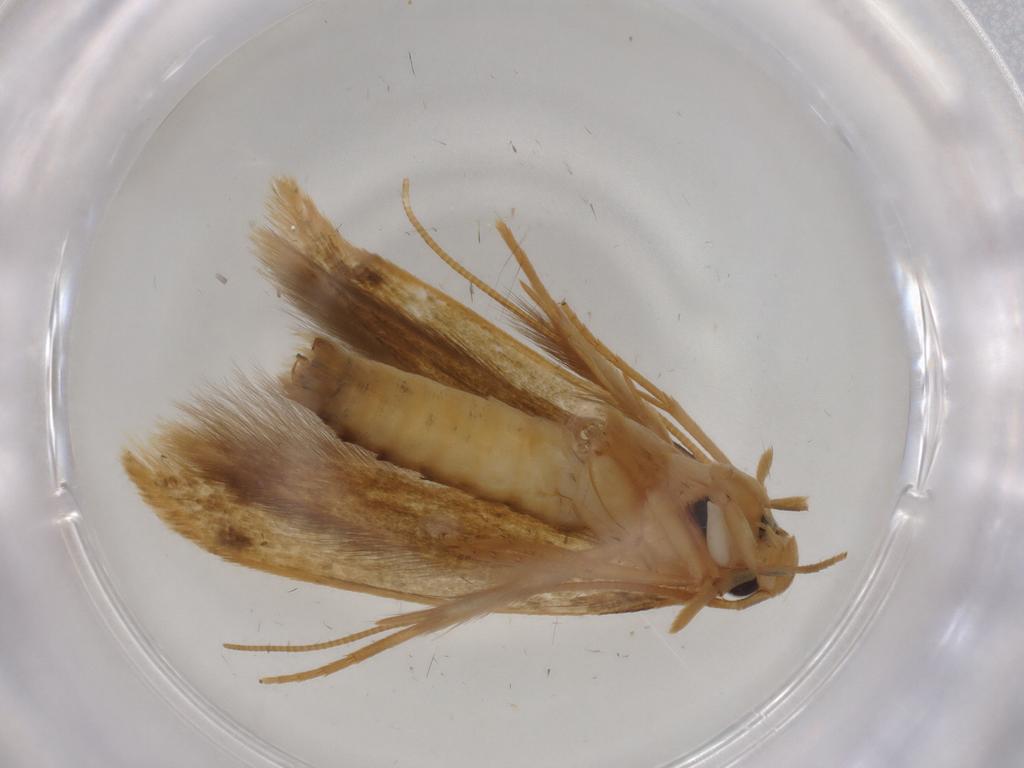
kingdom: Animalia
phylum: Arthropoda
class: Insecta
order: Lepidoptera
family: Tineidae
